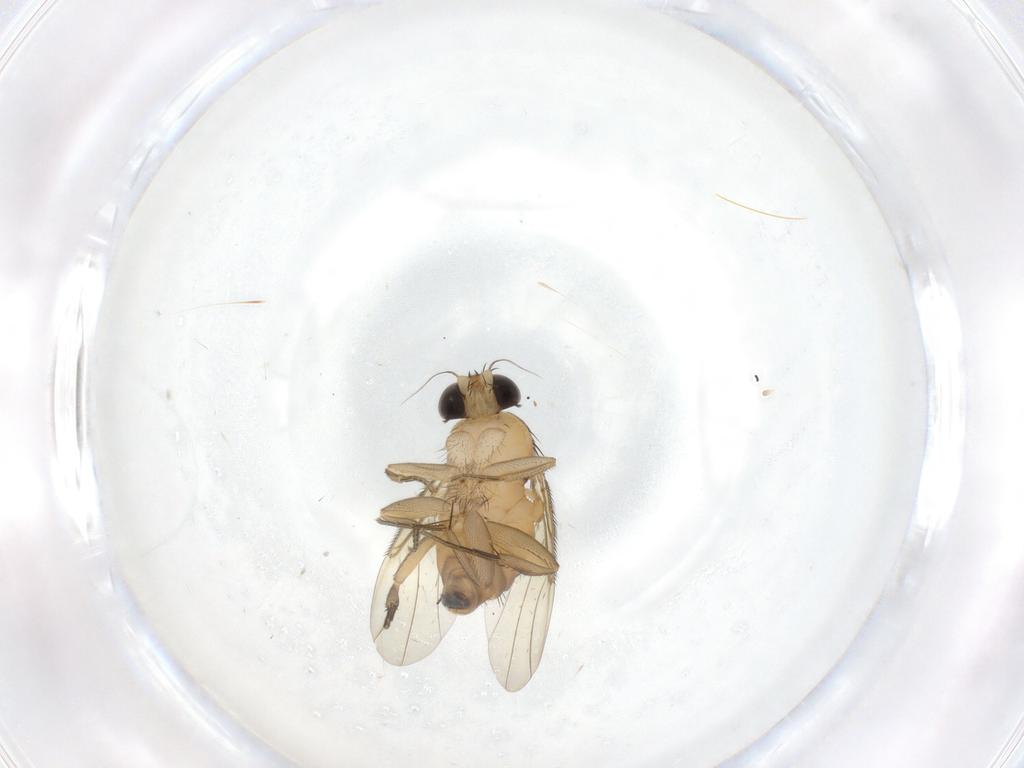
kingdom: Animalia
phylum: Arthropoda
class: Insecta
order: Diptera
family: Phoridae
